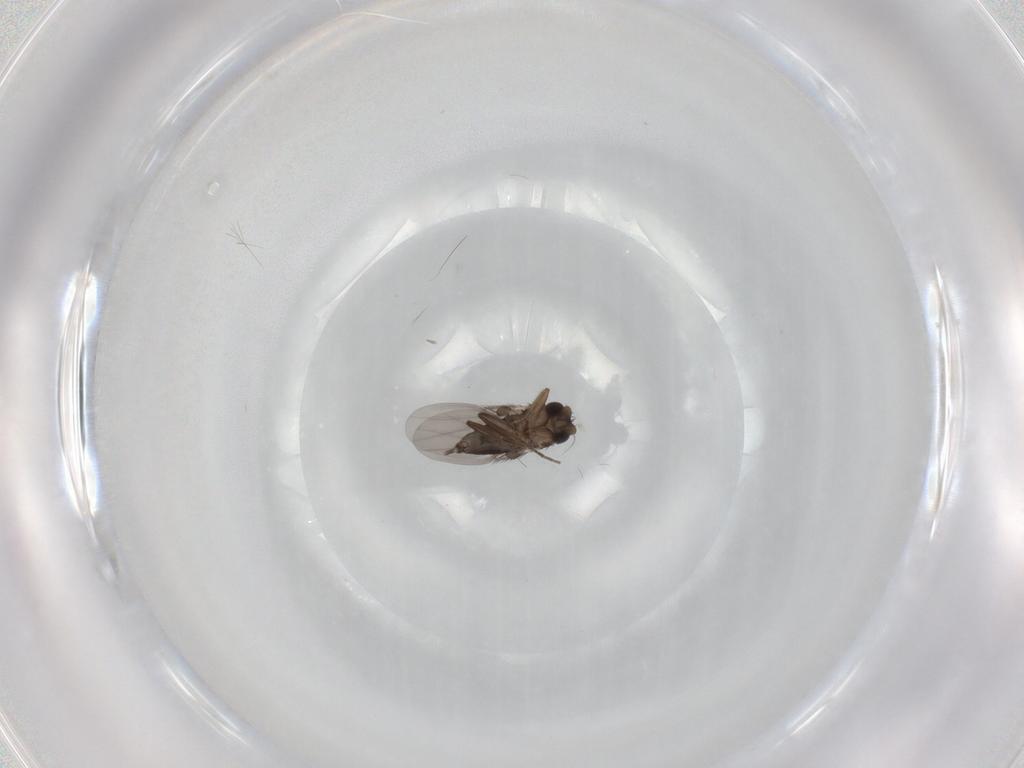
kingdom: Animalia
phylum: Arthropoda
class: Insecta
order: Diptera
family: Phoridae
